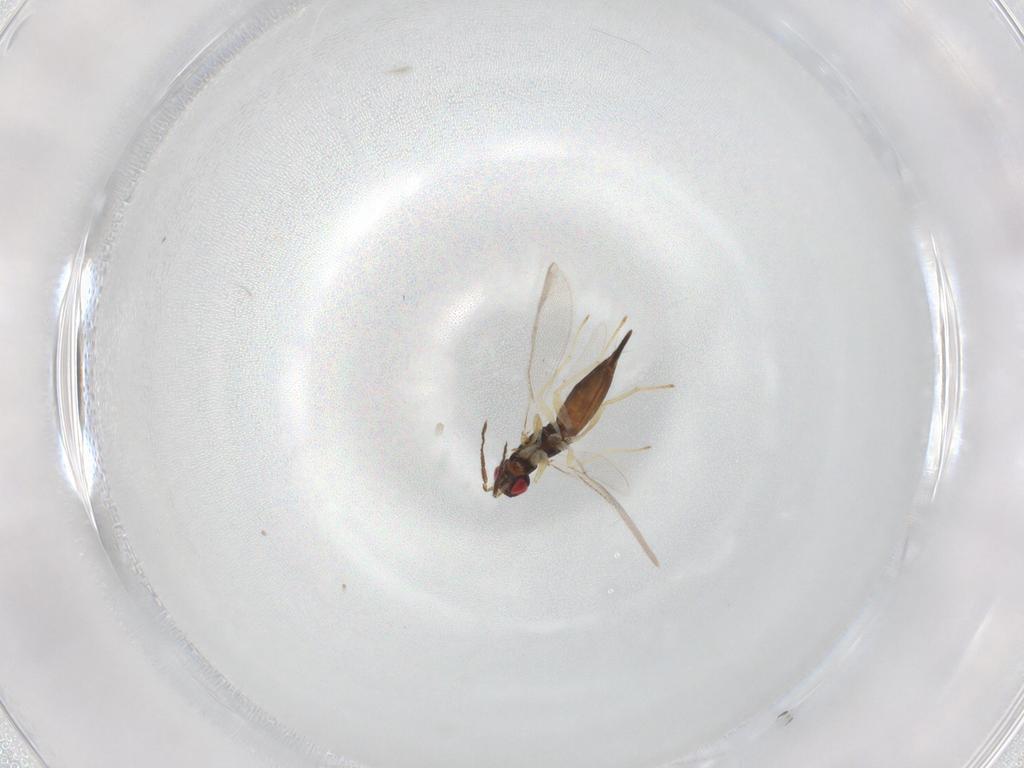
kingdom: Animalia
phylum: Arthropoda
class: Insecta
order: Hymenoptera
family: Eulophidae
